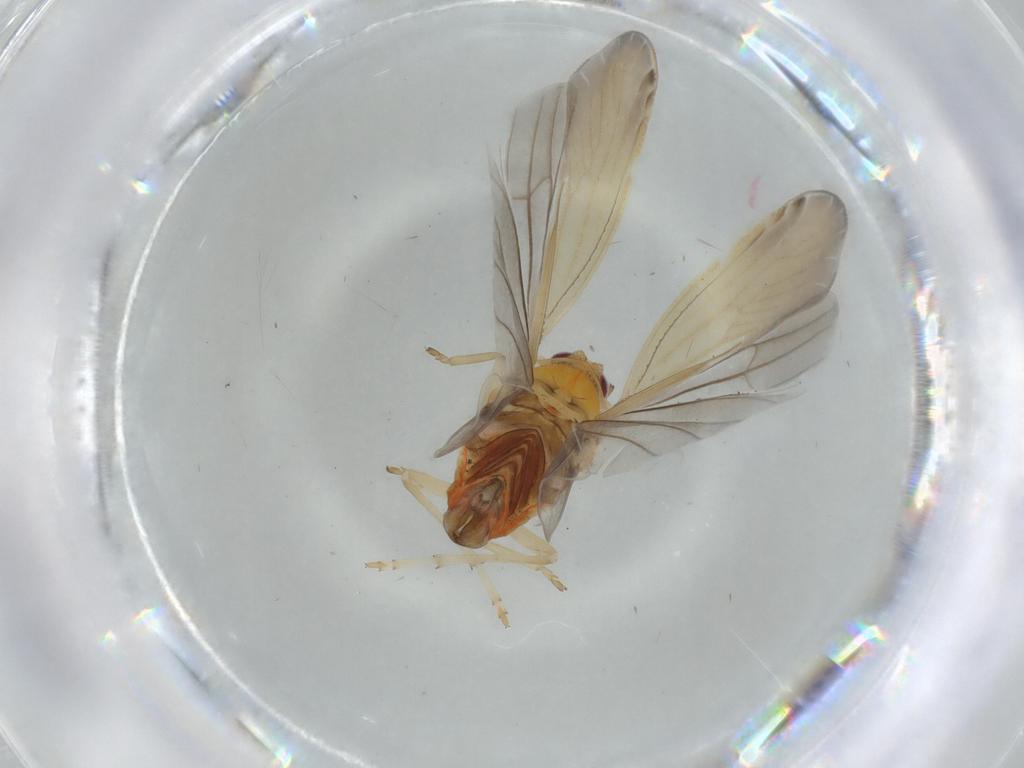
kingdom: Animalia
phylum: Arthropoda
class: Insecta
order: Hemiptera
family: Derbidae
